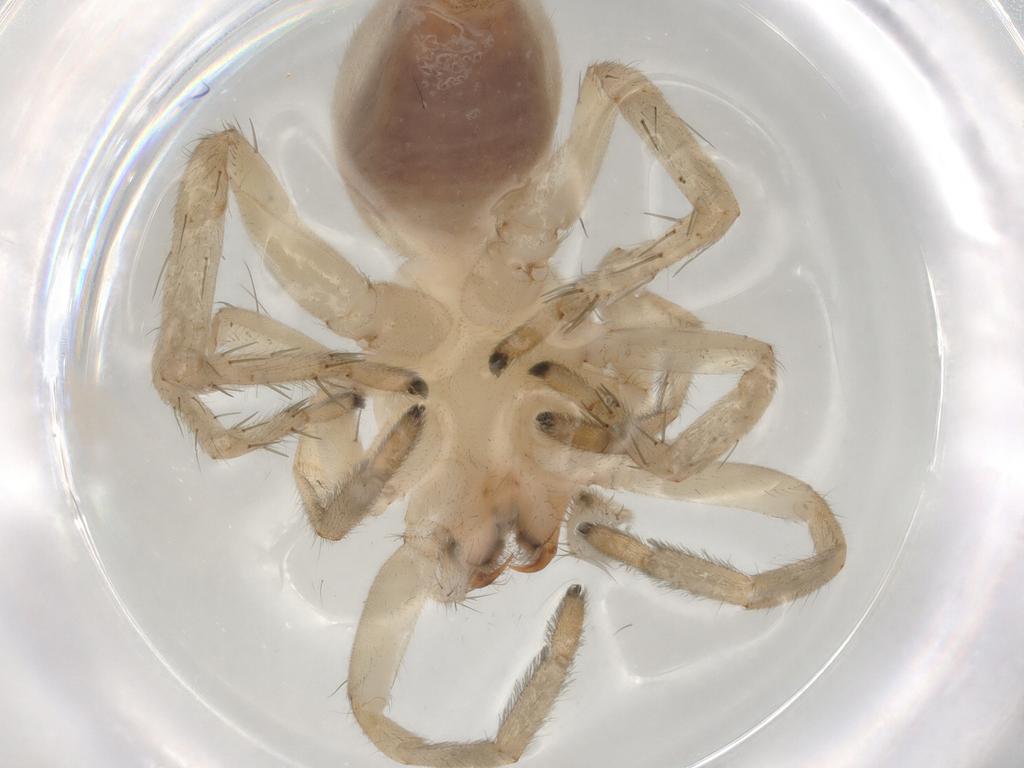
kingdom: Animalia
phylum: Arthropoda
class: Arachnida
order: Araneae
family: Clubionidae
